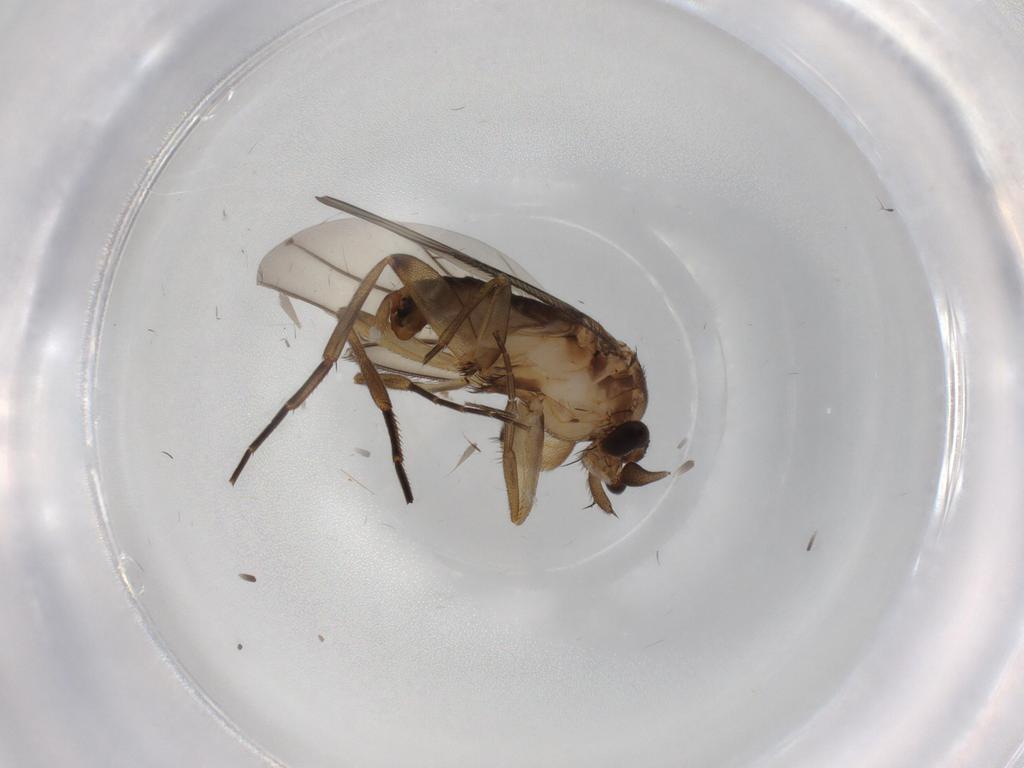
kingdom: Animalia
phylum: Arthropoda
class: Insecta
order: Diptera
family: Phoridae
